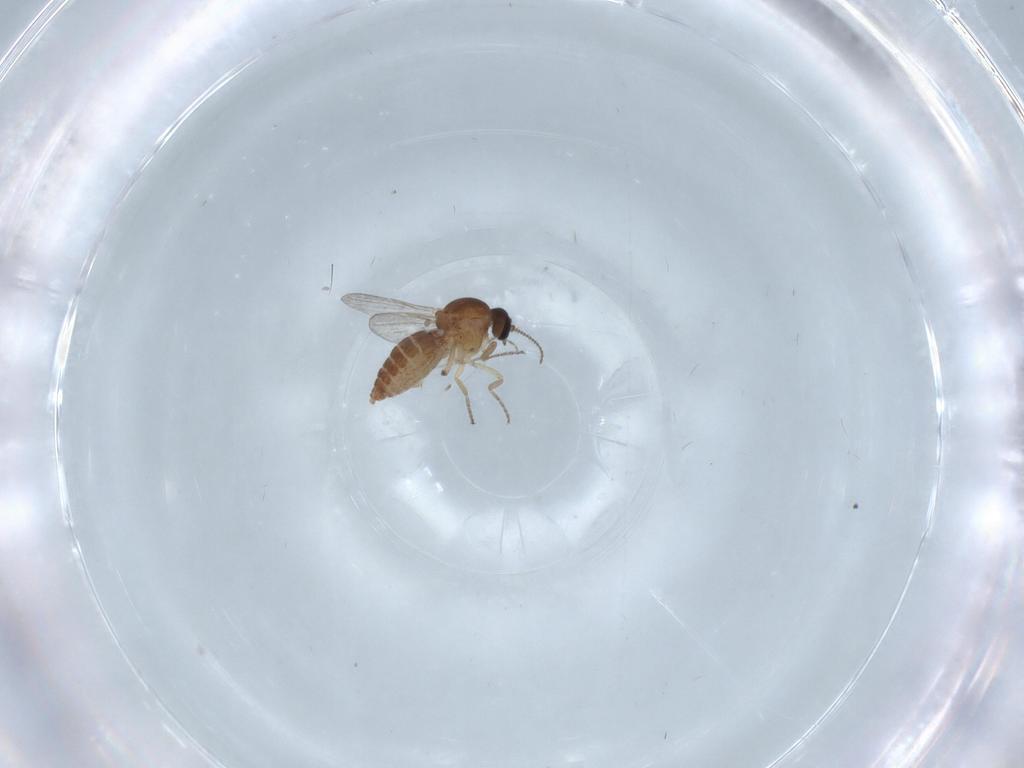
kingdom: Animalia
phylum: Arthropoda
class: Insecta
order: Diptera
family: Ceratopogonidae
